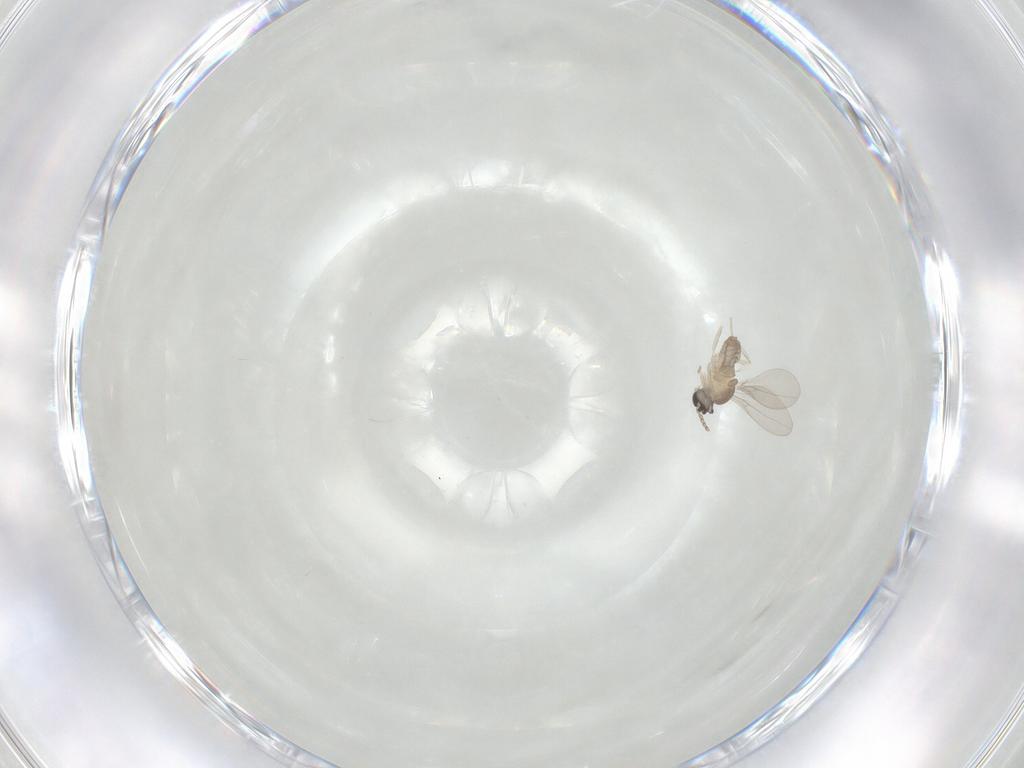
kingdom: Animalia
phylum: Arthropoda
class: Insecta
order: Diptera
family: Cecidomyiidae
